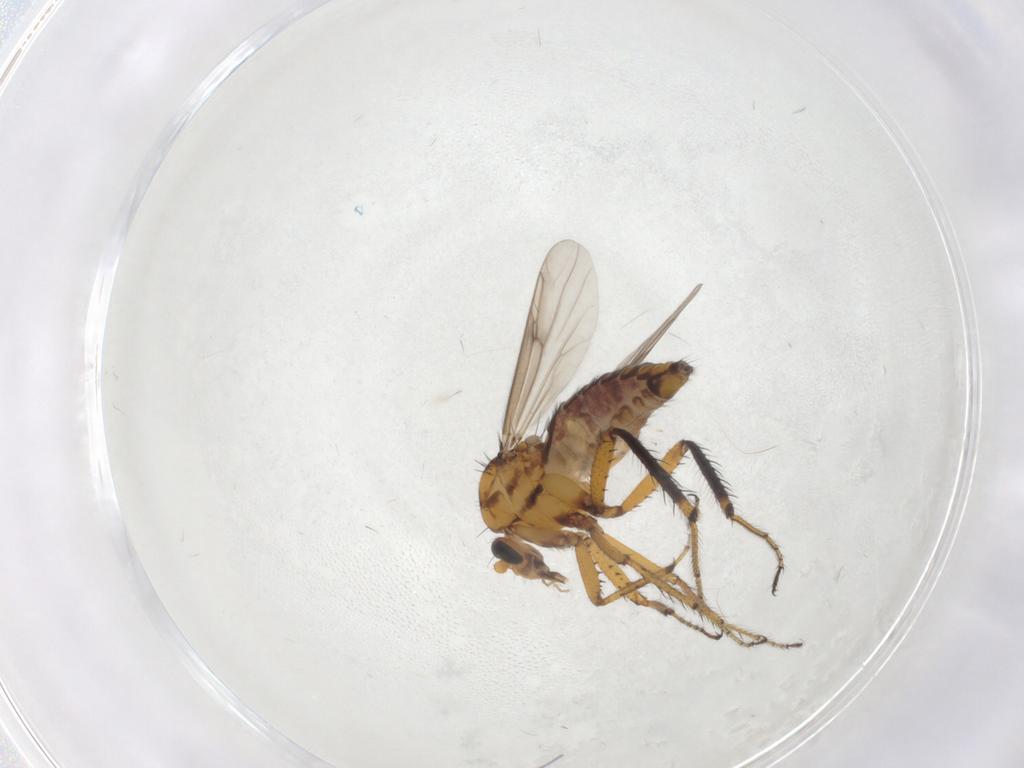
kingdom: Animalia
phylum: Arthropoda
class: Insecta
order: Diptera
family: Ceratopogonidae
